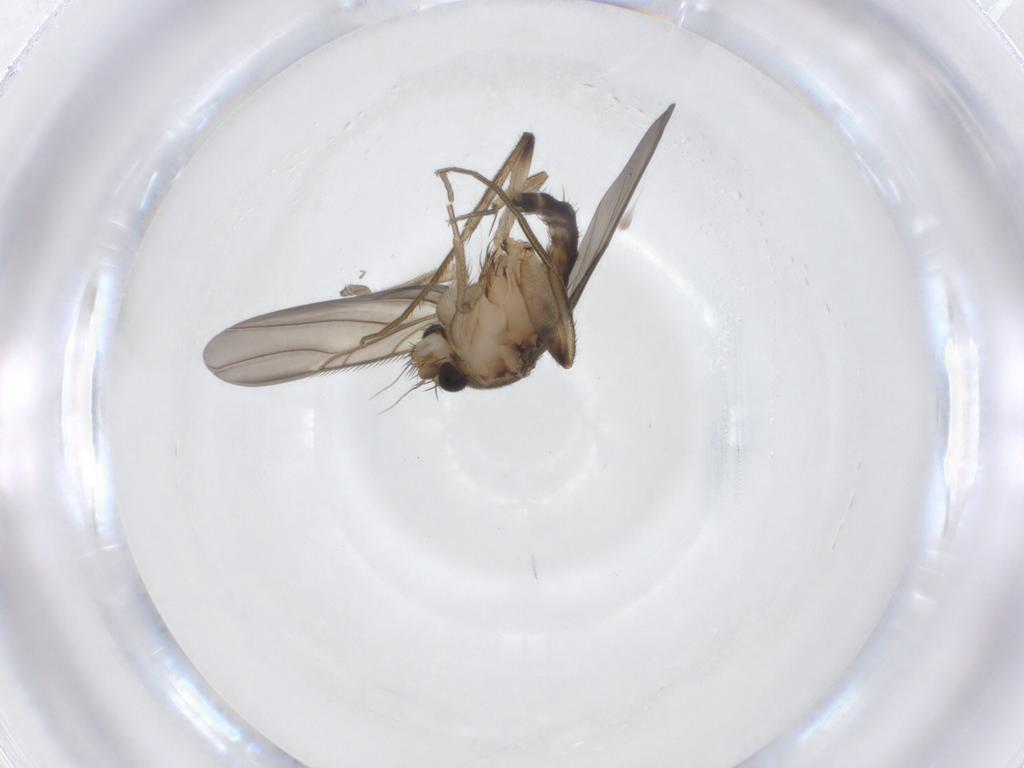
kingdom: Animalia
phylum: Arthropoda
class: Insecta
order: Diptera
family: Phoridae
